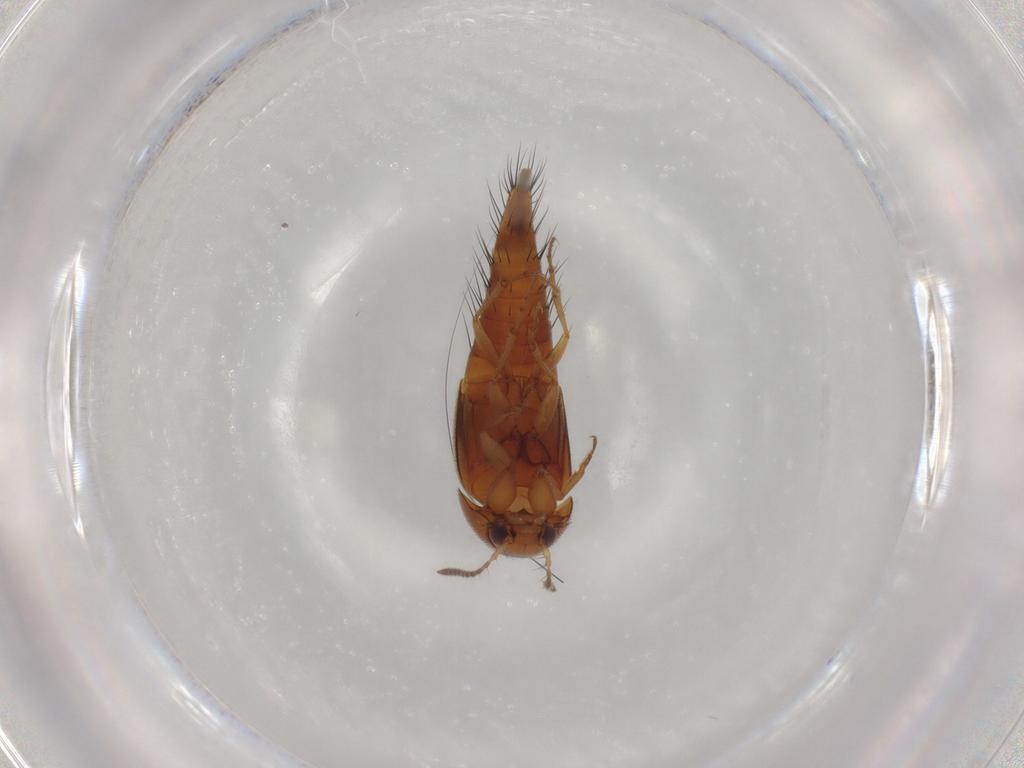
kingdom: Animalia
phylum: Arthropoda
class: Insecta
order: Coleoptera
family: Staphylinidae
